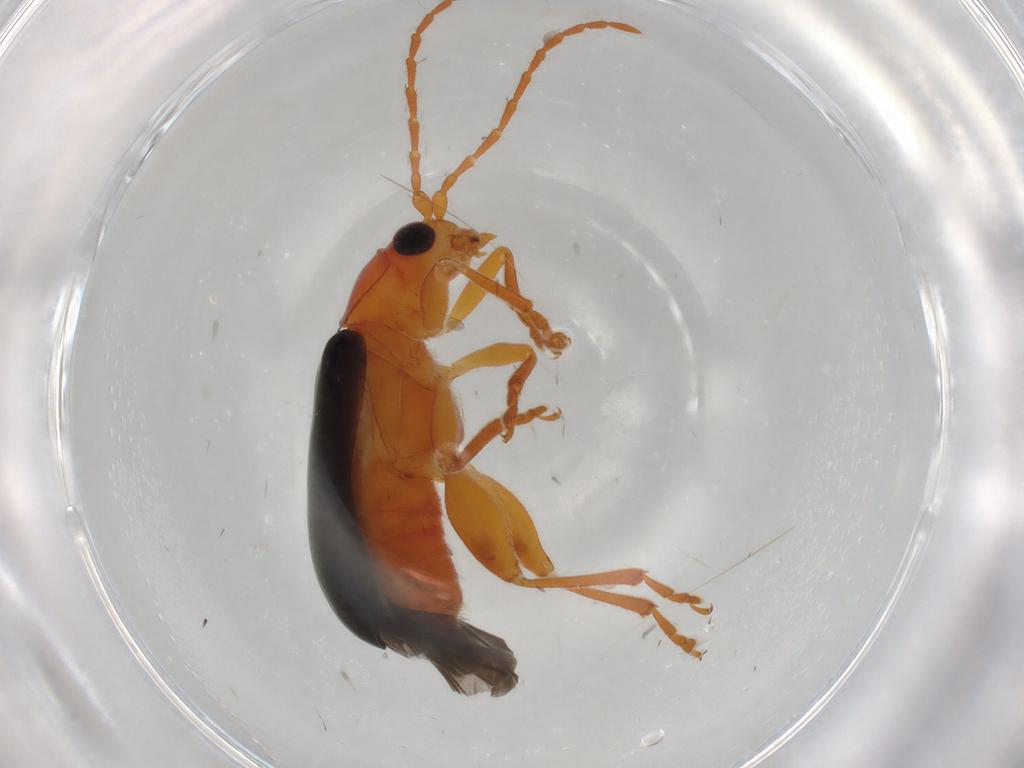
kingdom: Animalia
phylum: Arthropoda
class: Insecta
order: Coleoptera
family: Chrysomelidae
